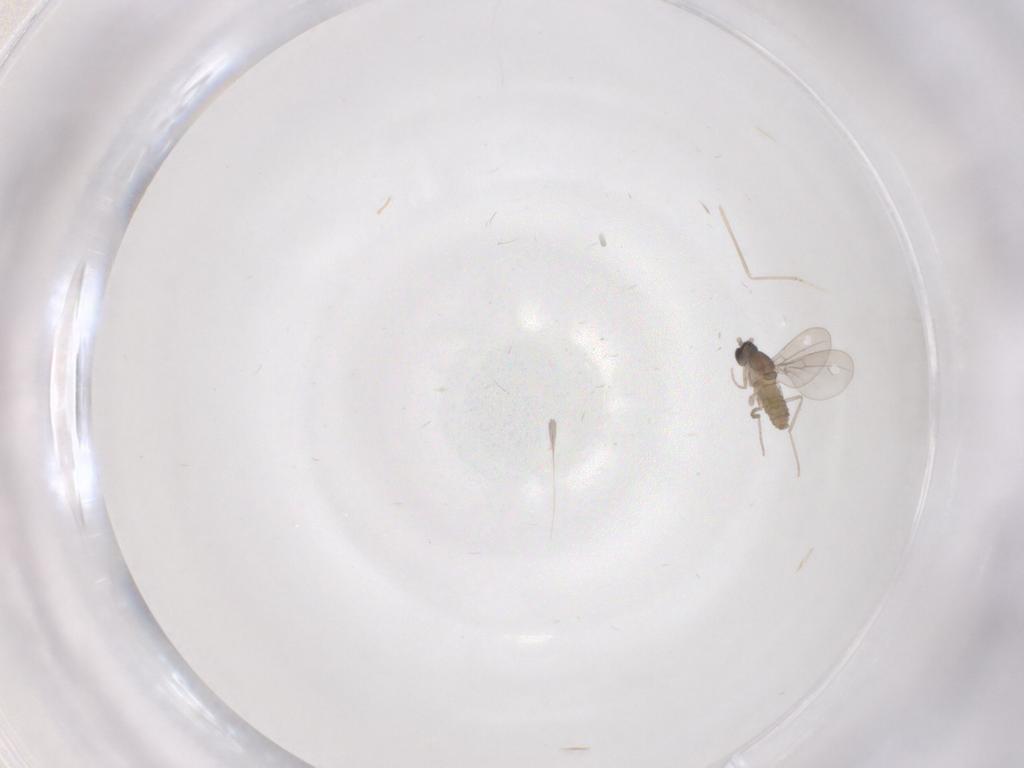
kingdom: Animalia
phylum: Arthropoda
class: Insecta
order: Diptera
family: Cecidomyiidae
